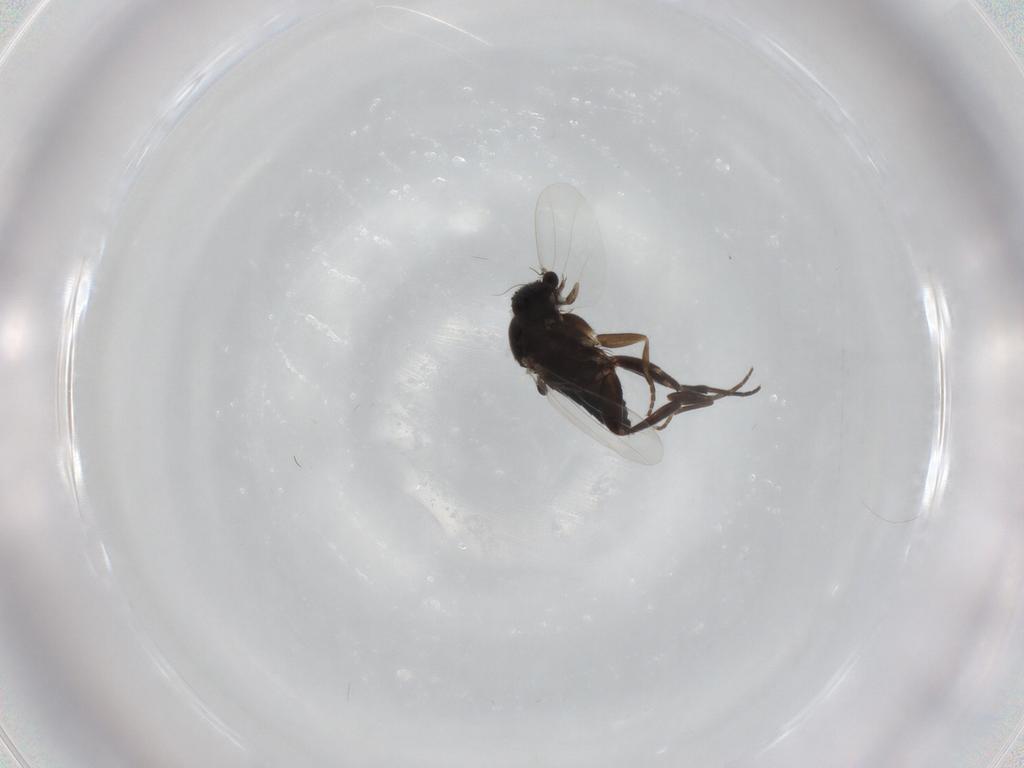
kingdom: Animalia
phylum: Arthropoda
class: Insecta
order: Diptera
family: Phoridae
